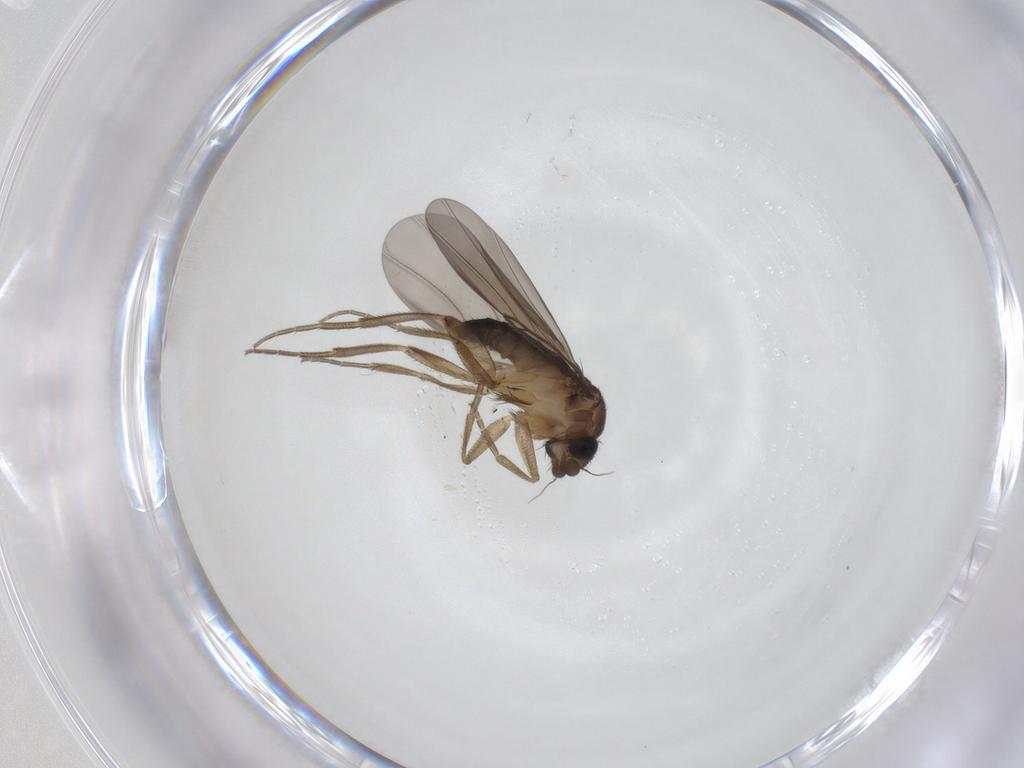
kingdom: Animalia
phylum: Arthropoda
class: Insecta
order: Diptera
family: Phoridae
